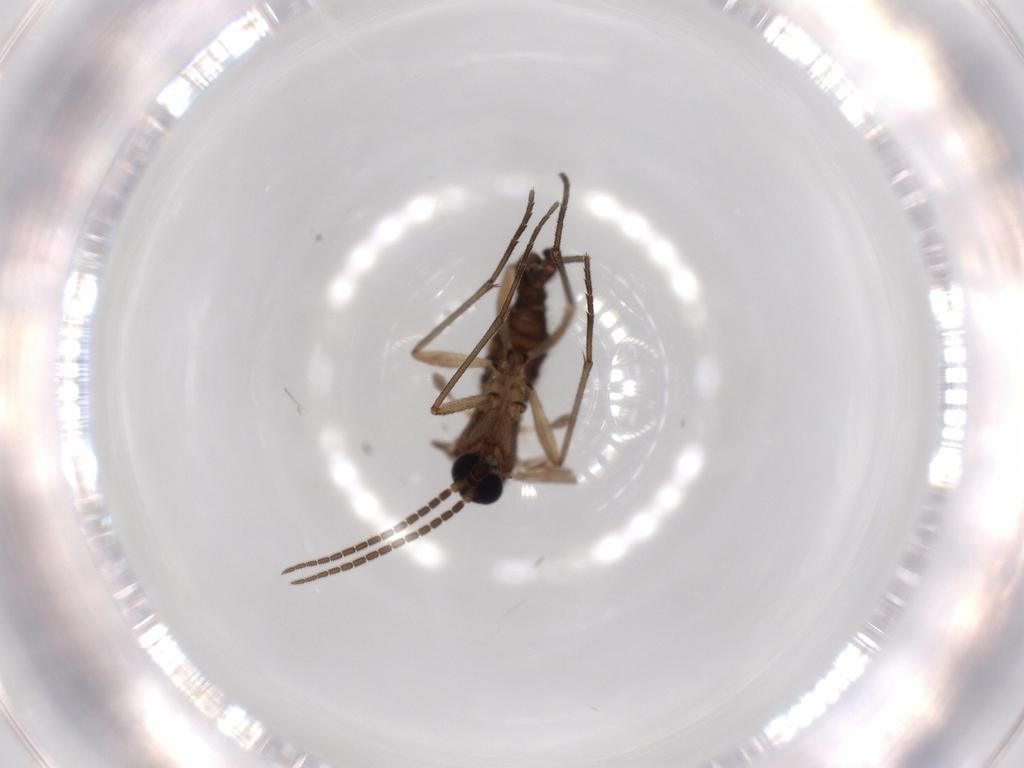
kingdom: Animalia
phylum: Arthropoda
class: Insecta
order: Diptera
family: Sciaridae
